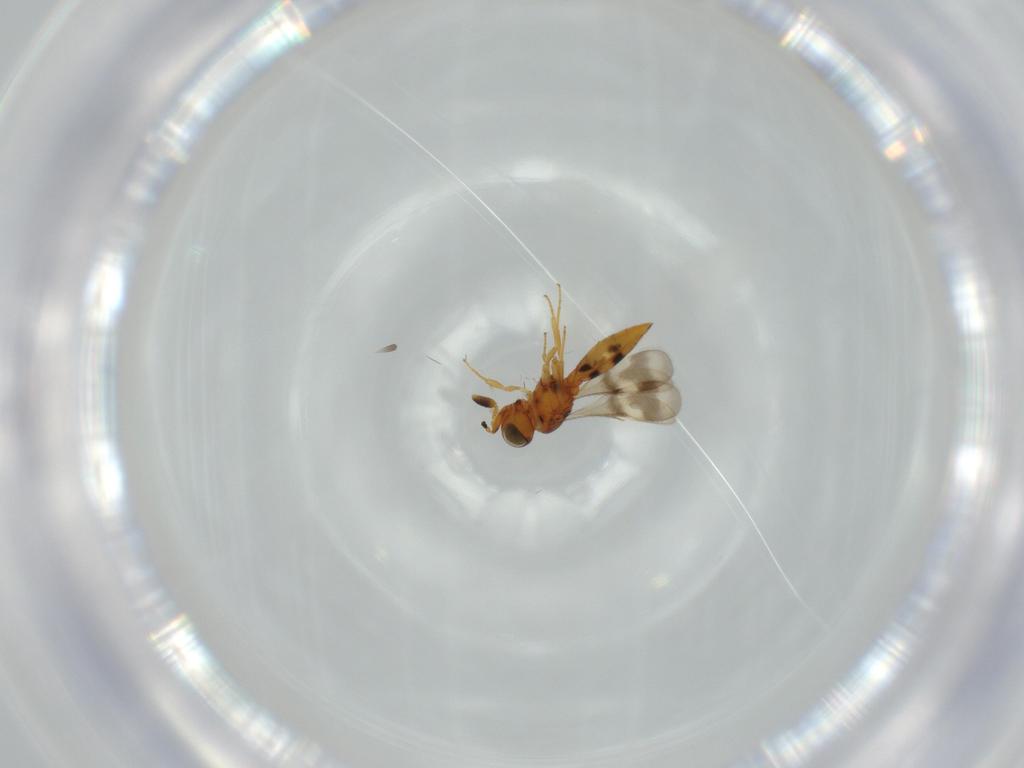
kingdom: Animalia
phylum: Arthropoda
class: Insecta
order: Hymenoptera
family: Scelionidae
